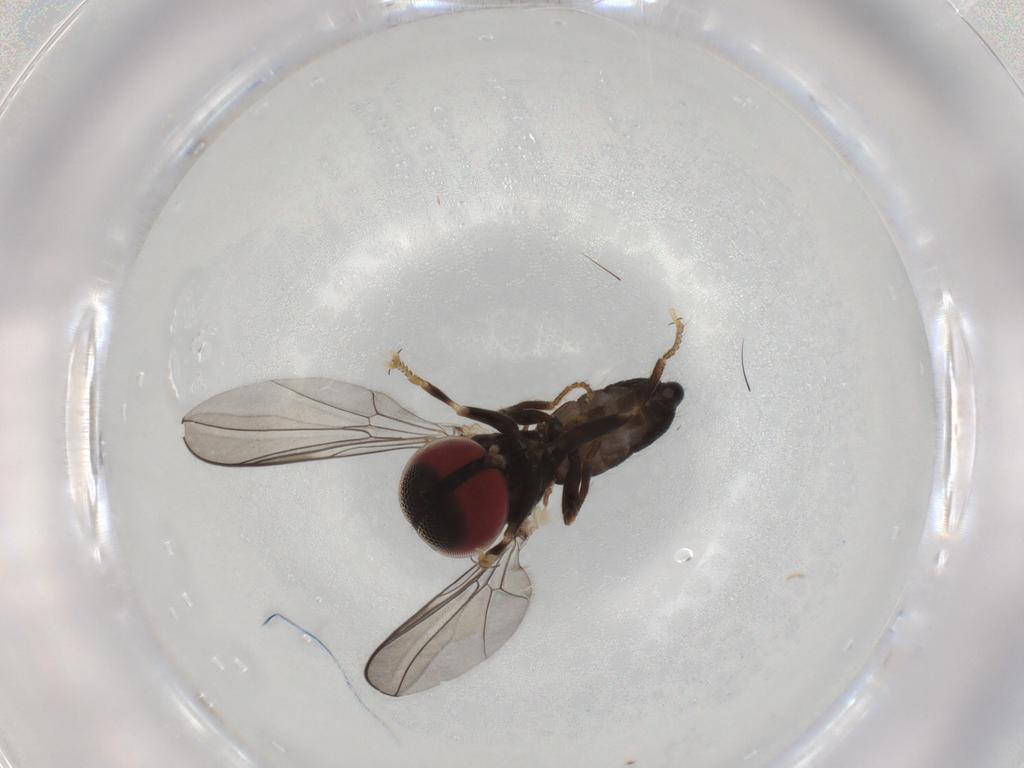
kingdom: Animalia
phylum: Arthropoda
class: Insecta
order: Diptera
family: Pipunculidae
